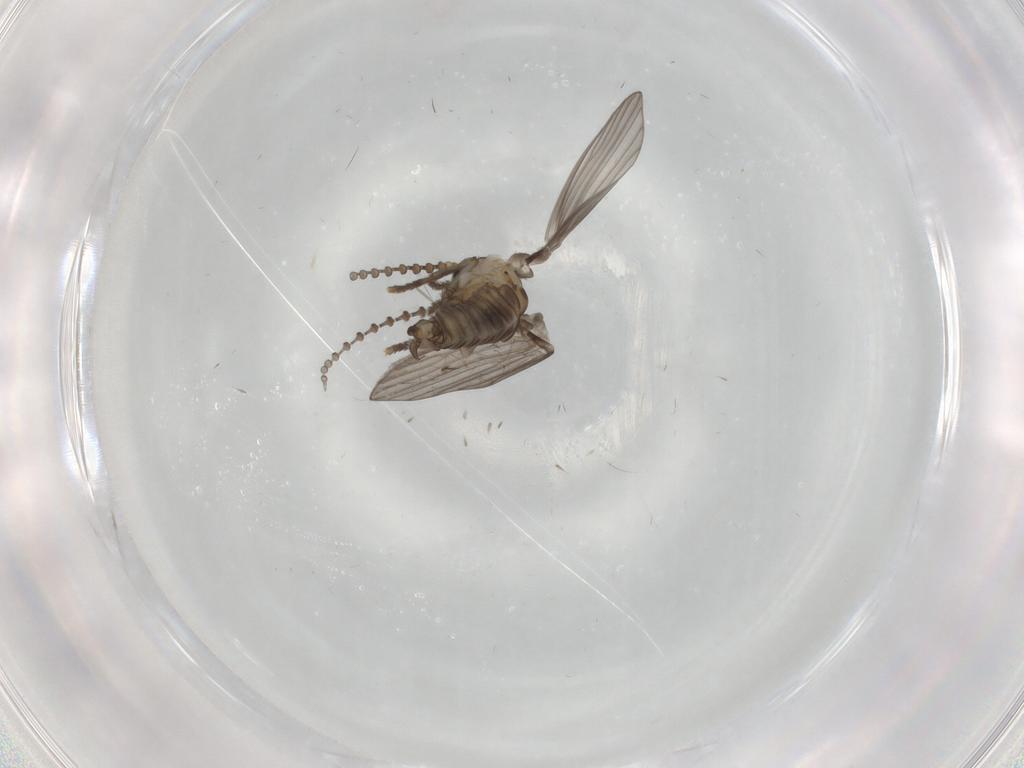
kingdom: Animalia
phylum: Arthropoda
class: Insecta
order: Diptera
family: Psychodidae
